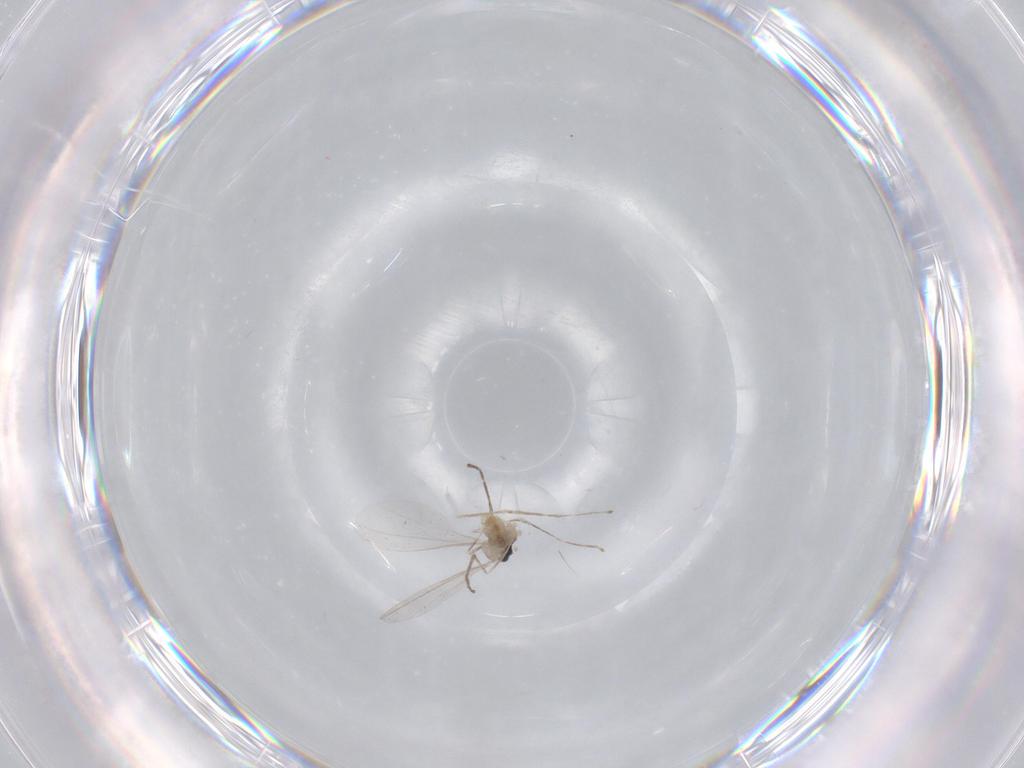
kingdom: Animalia
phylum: Arthropoda
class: Insecta
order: Diptera
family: Cecidomyiidae
